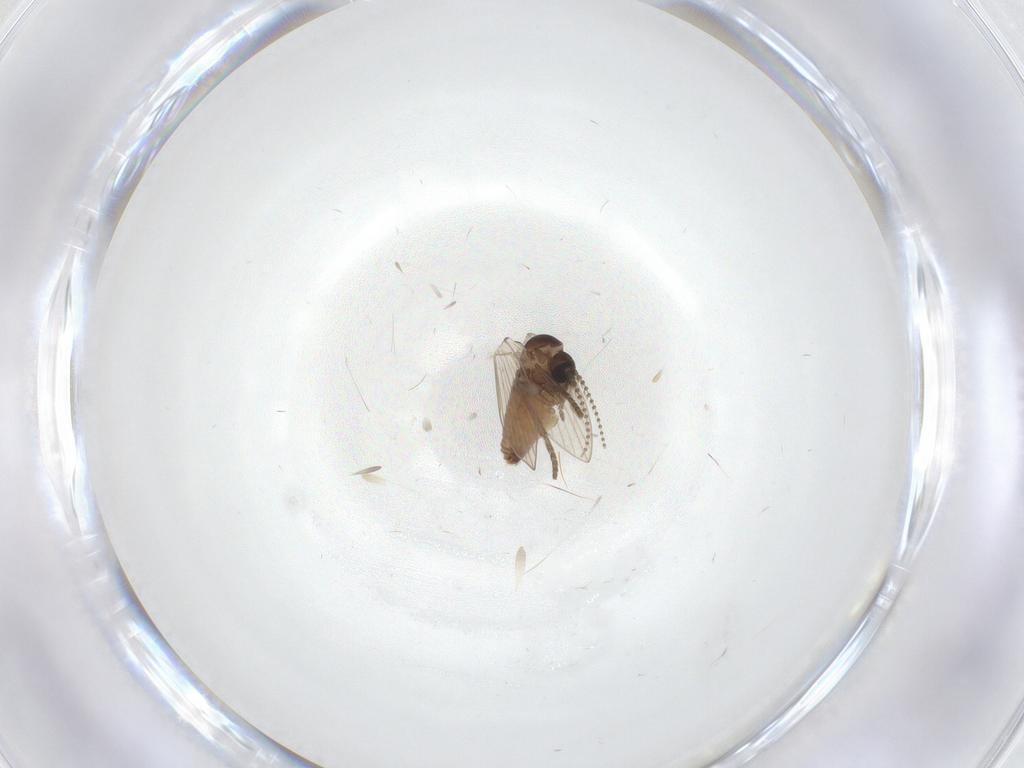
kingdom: Animalia
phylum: Arthropoda
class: Insecta
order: Diptera
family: Psychodidae
